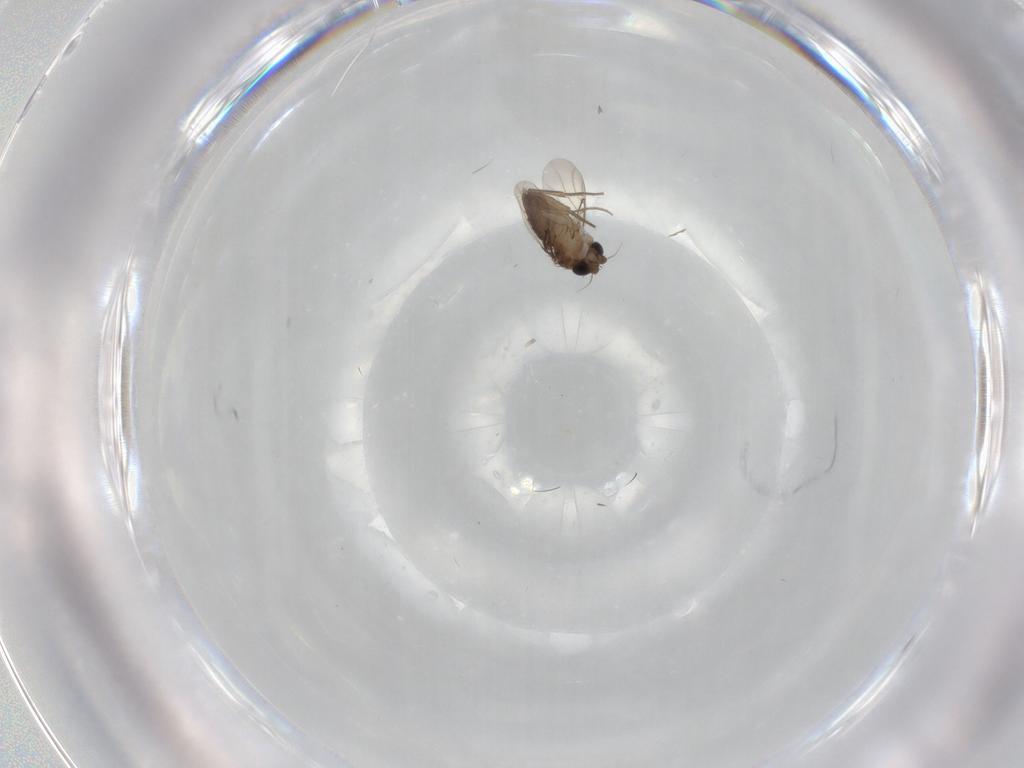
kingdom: Animalia
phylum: Arthropoda
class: Insecta
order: Diptera
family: Phoridae
